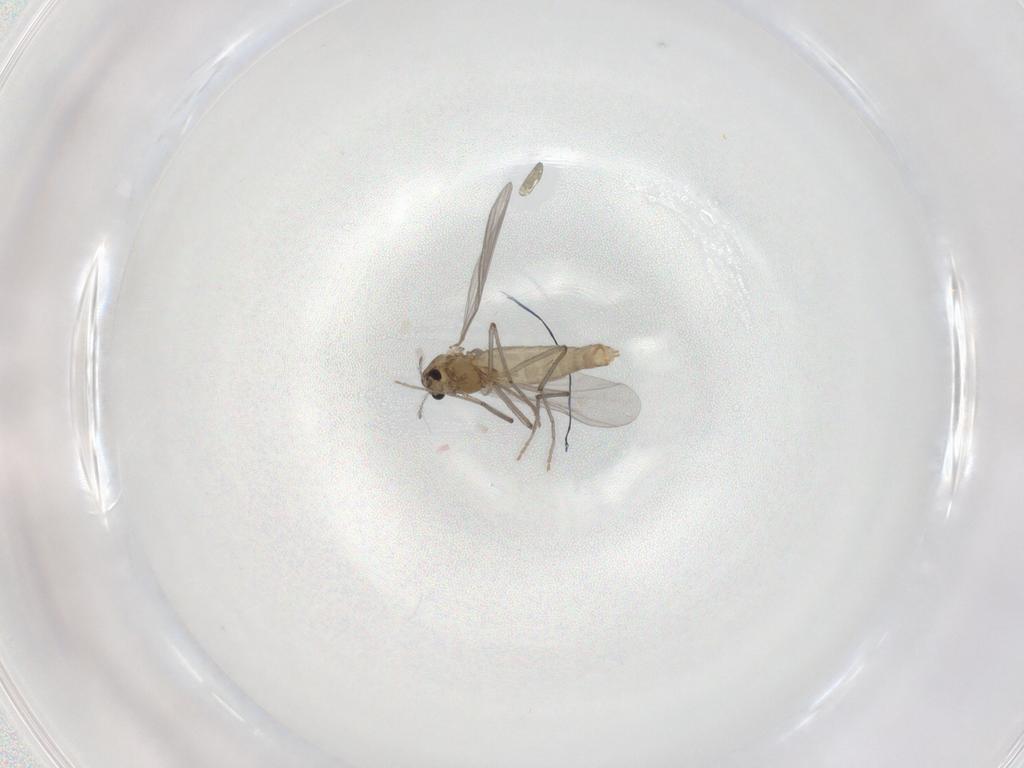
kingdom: Animalia
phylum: Arthropoda
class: Insecta
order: Diptera
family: Chironomidae
